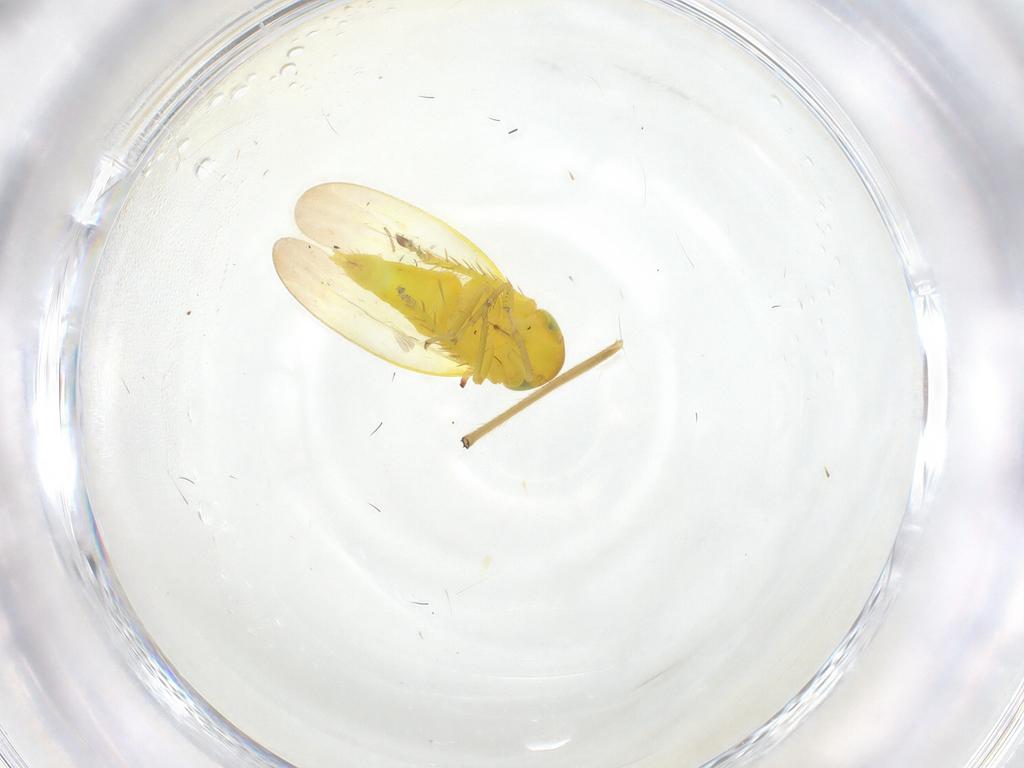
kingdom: Animalia
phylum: Arthropoda
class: Insecta
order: Hemiptera
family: Cicadellidae
